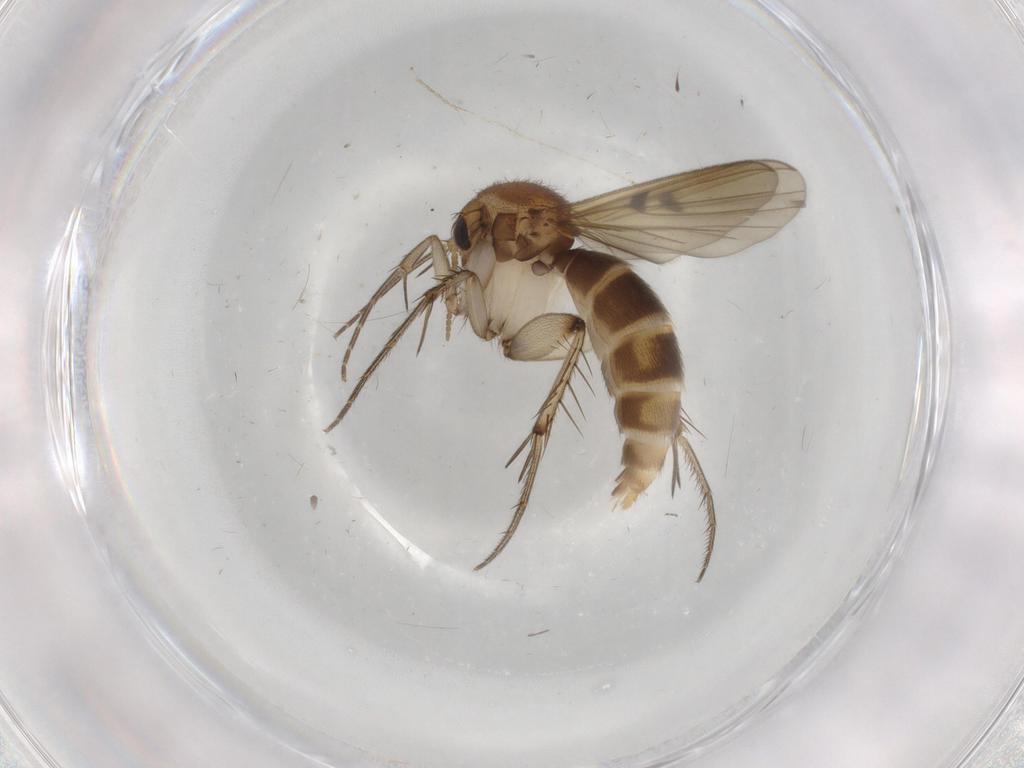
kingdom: Animalia
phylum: Arthropoda
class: Insecta
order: Diptera
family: Mycetophilidae
